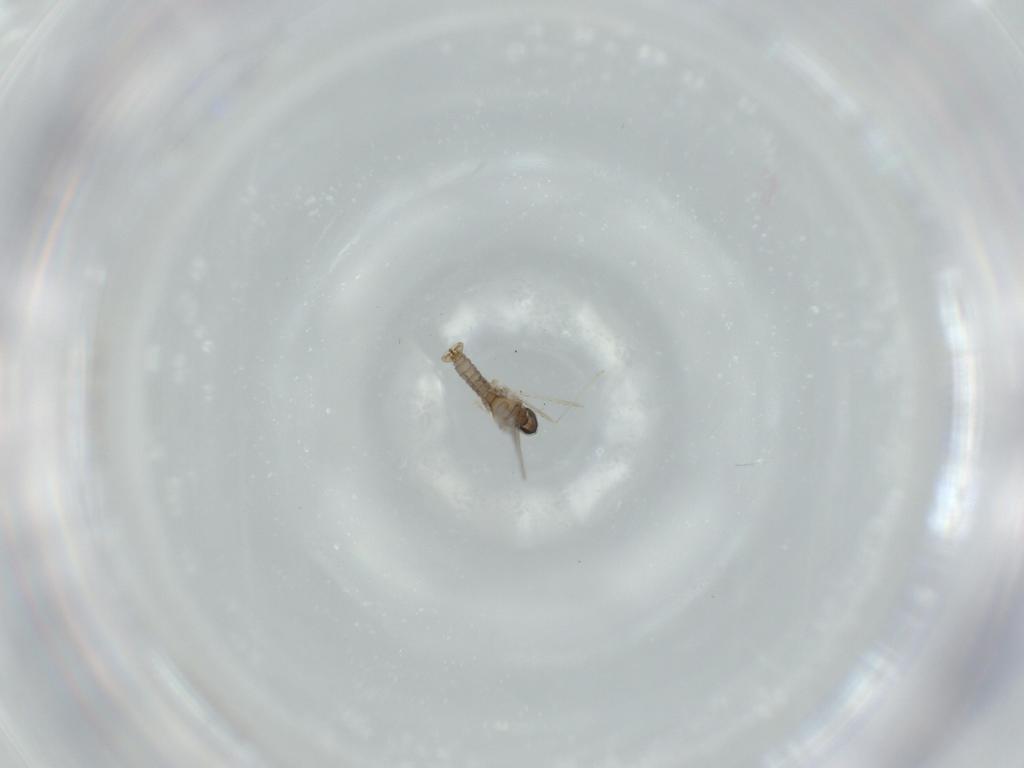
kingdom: Animalia
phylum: Arthropoda
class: Insecta
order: Diptera
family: Cecidomyiidae
